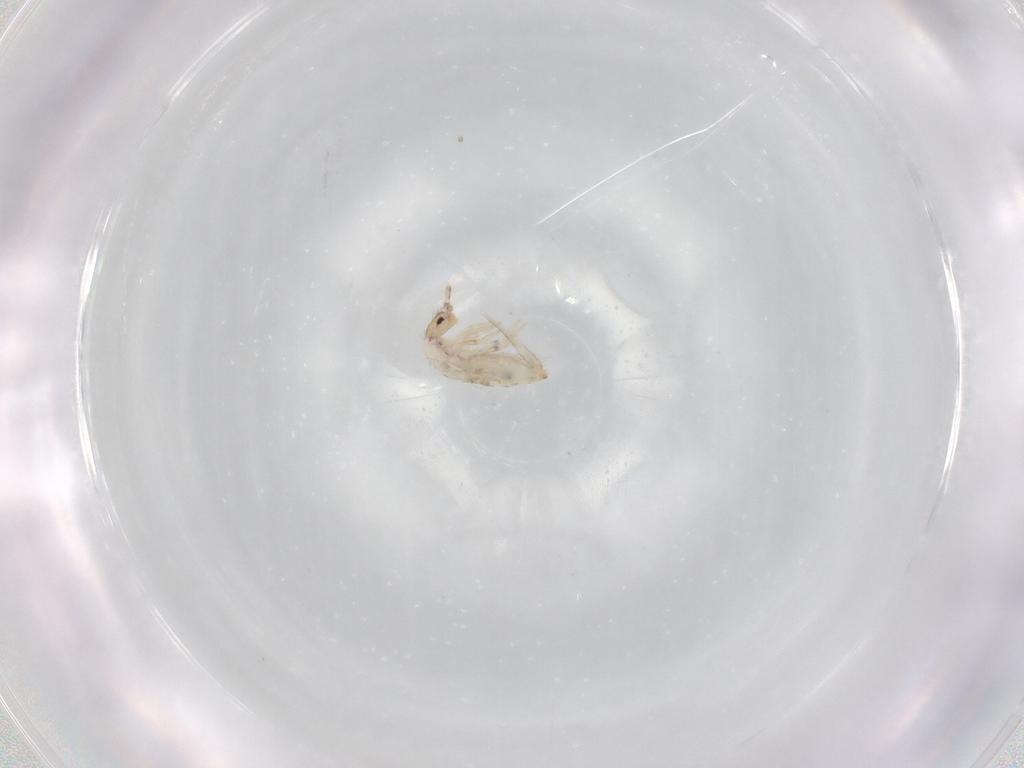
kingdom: Animalia
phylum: Arthropoda
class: Collembola
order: Entomobryomorpha
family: Entomobryidae
